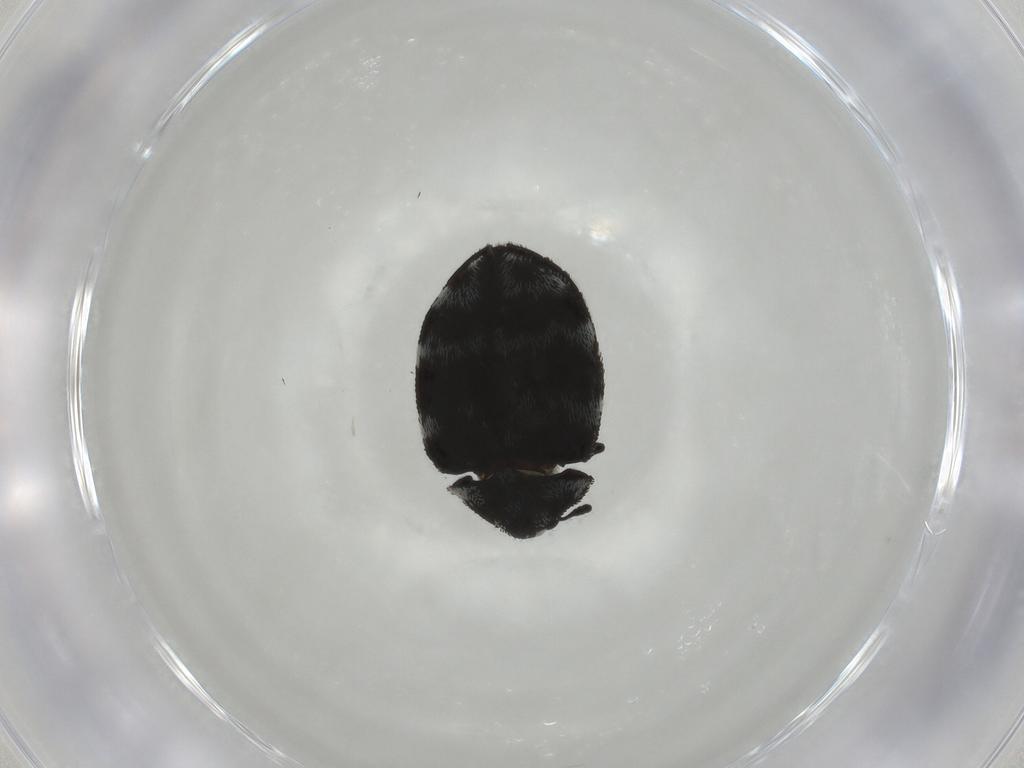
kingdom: Animalia
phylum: Arthropoda
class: Insecta
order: Coleoptera
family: Dermestidae
